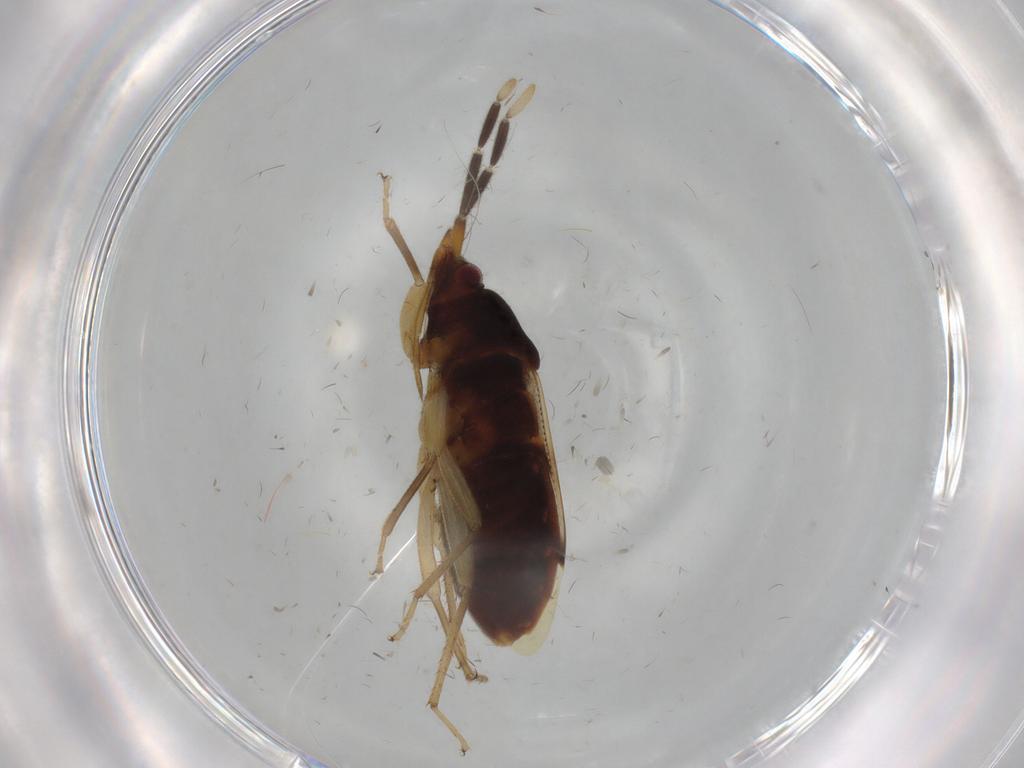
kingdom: Animalia
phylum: Arthropoda
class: Insecta
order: Hemiptera
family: Rhyparochromidae
